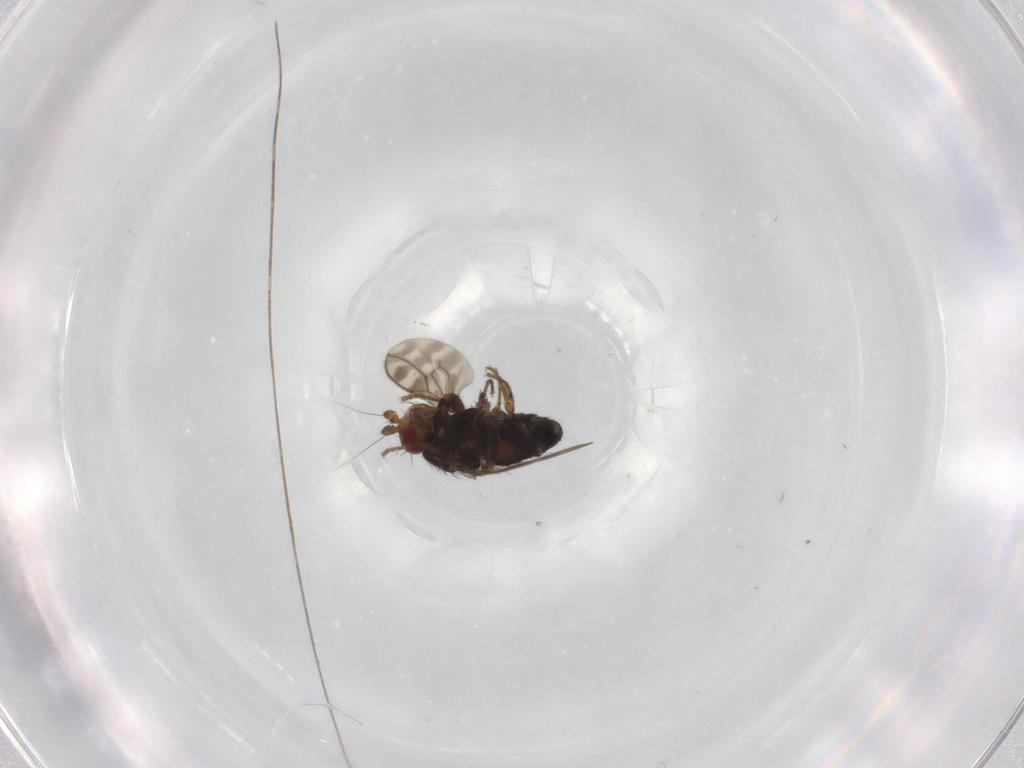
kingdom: Animalia
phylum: Arthropoda
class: Insecta
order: Diptera
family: Sphaeroceridae
